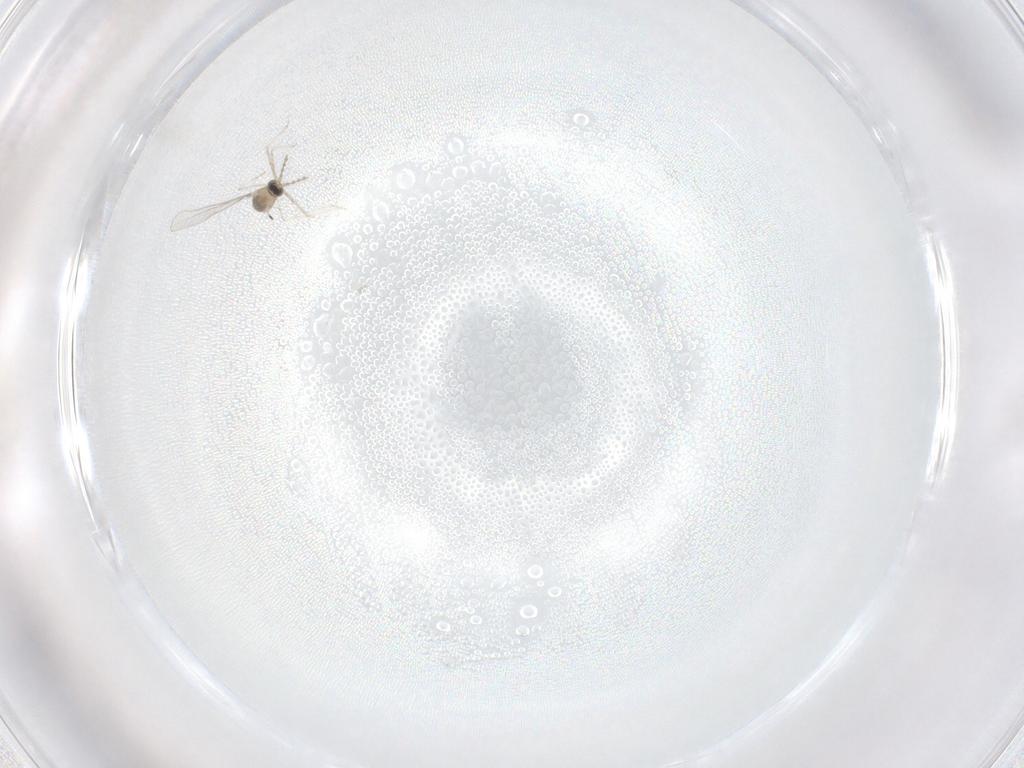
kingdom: Animalia
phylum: Arthropoda
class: Insecta
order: Diptera
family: Phoridae
